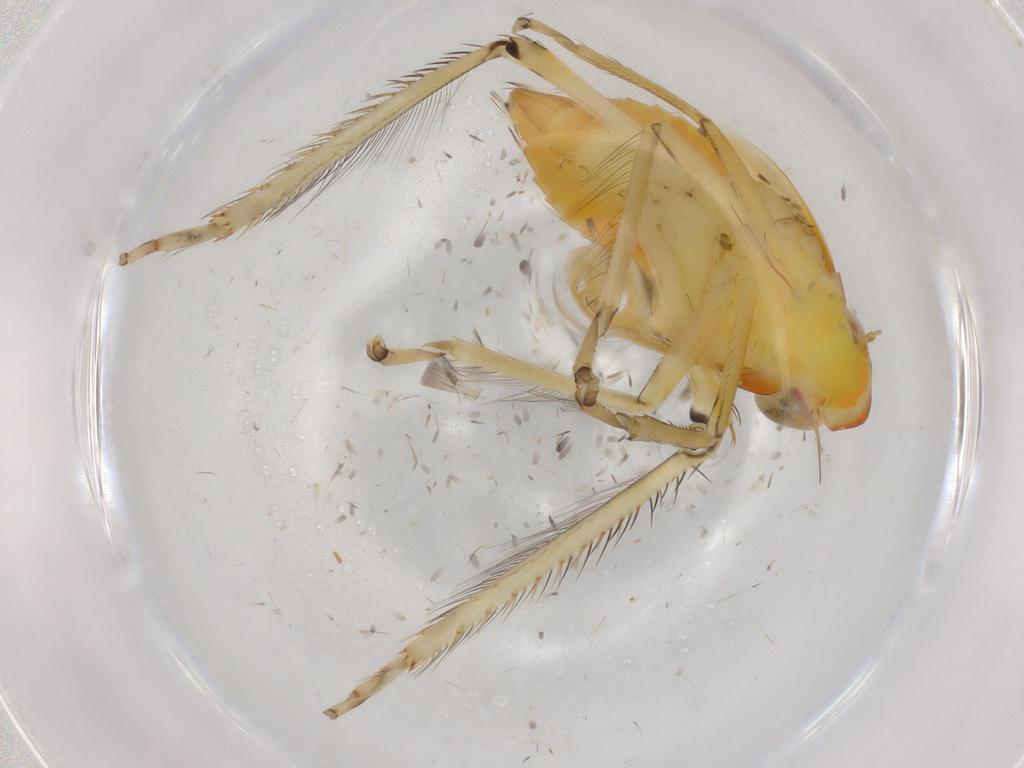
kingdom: Animalia
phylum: Arthropoda
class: Insecta
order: Hemiptera
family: Cicadellidae
